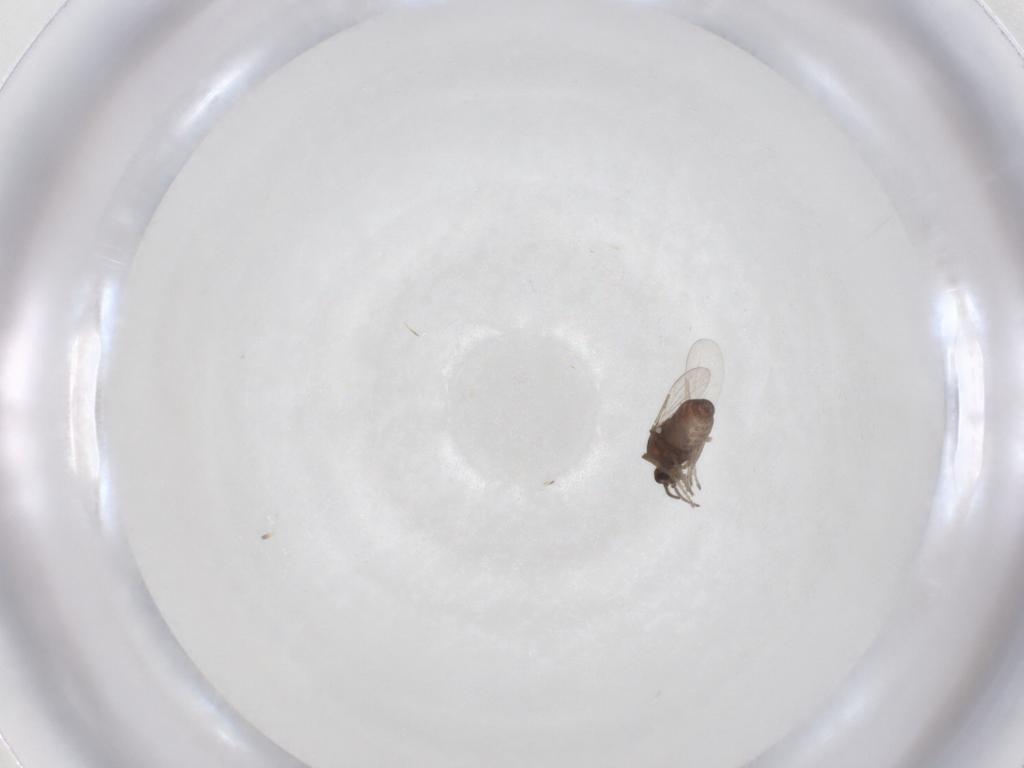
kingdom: Animalia
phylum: Arthropoda
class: Insecta
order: Diptera
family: Ceratopogonidae
